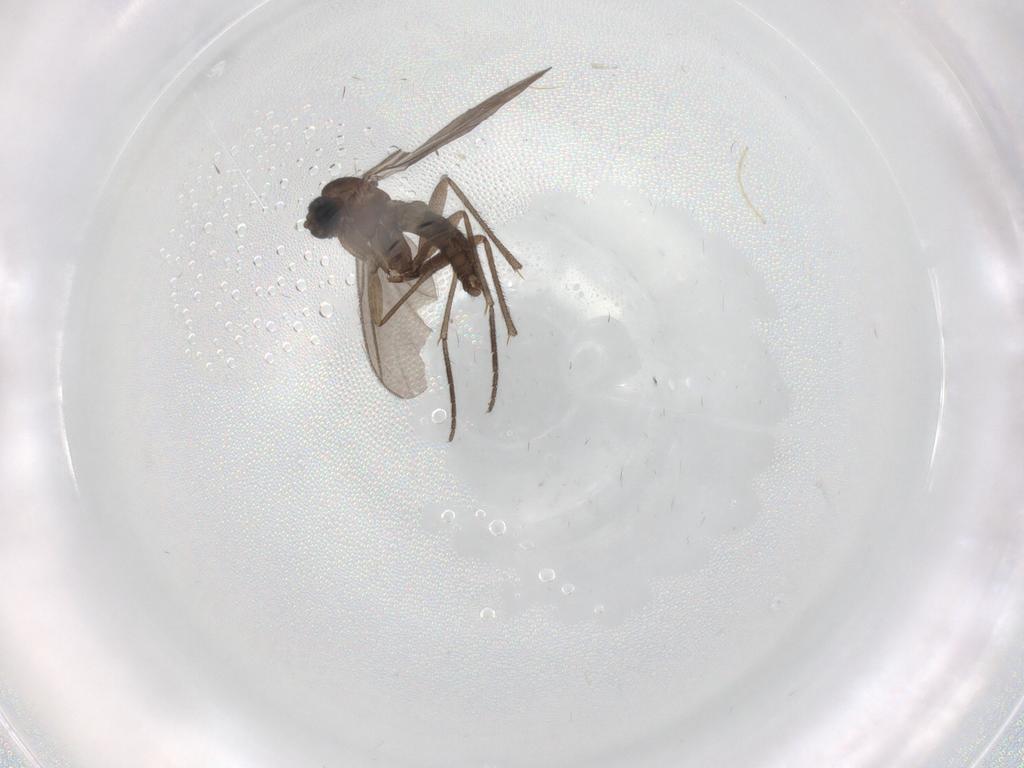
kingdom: Animalia
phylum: Arthropoda
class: Insecta
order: Diptera
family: Sciaridae
